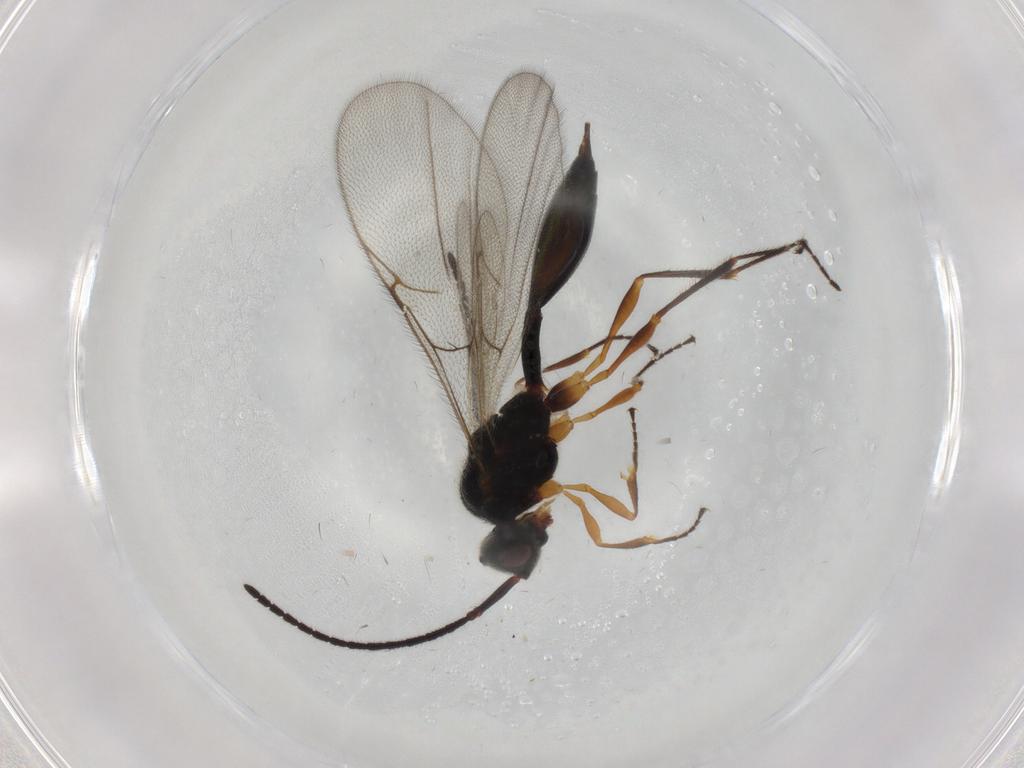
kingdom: Animalia
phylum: Arthropoda
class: Insecta
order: Hymenoptera
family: Diapriidae
